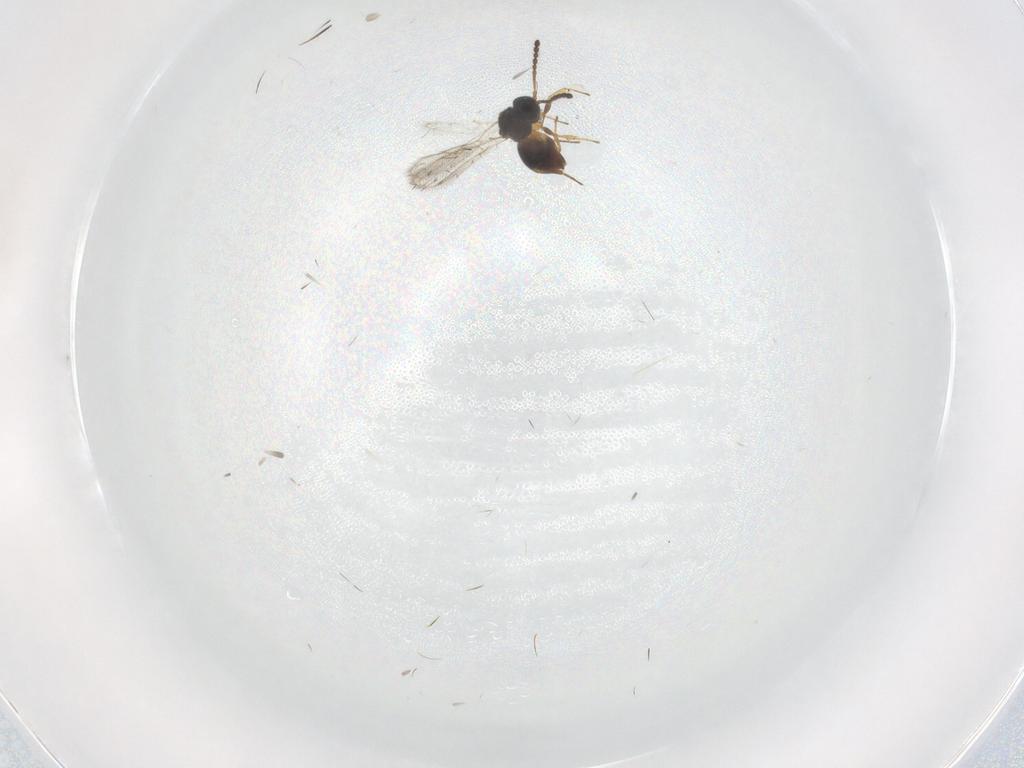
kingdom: Animalia
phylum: Arthropoda
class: Insecta
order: Hymenoptera
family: Figitidae
